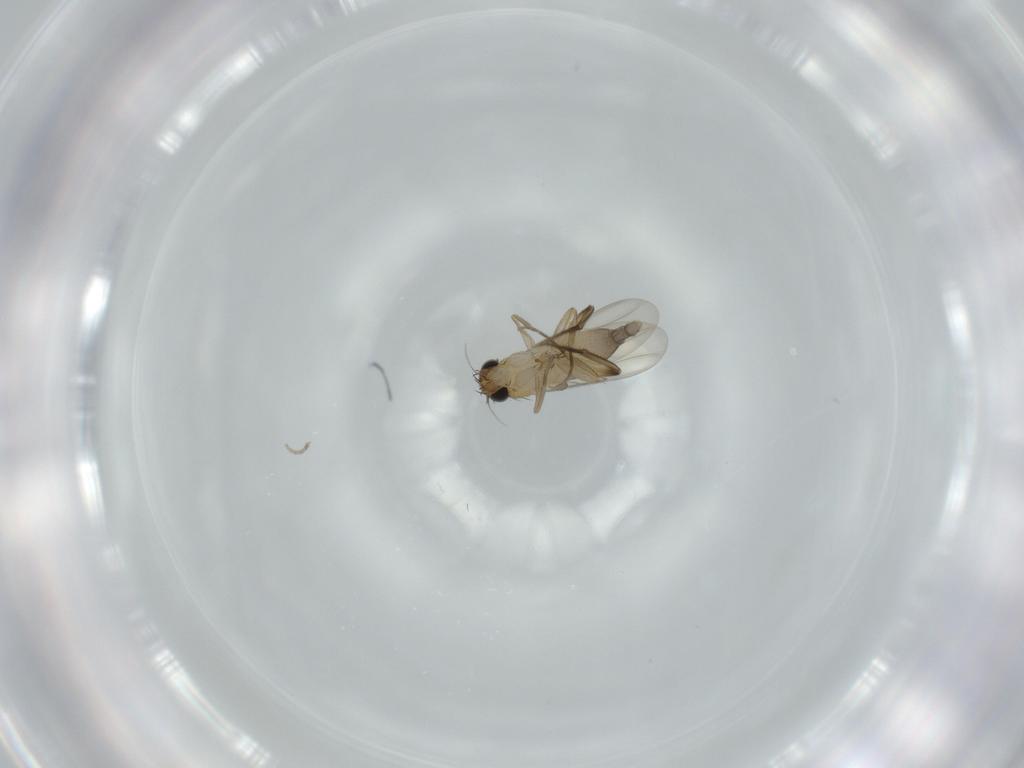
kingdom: Animalia
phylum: Arthropoda
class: Insecta
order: Diptera
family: Phoridae
